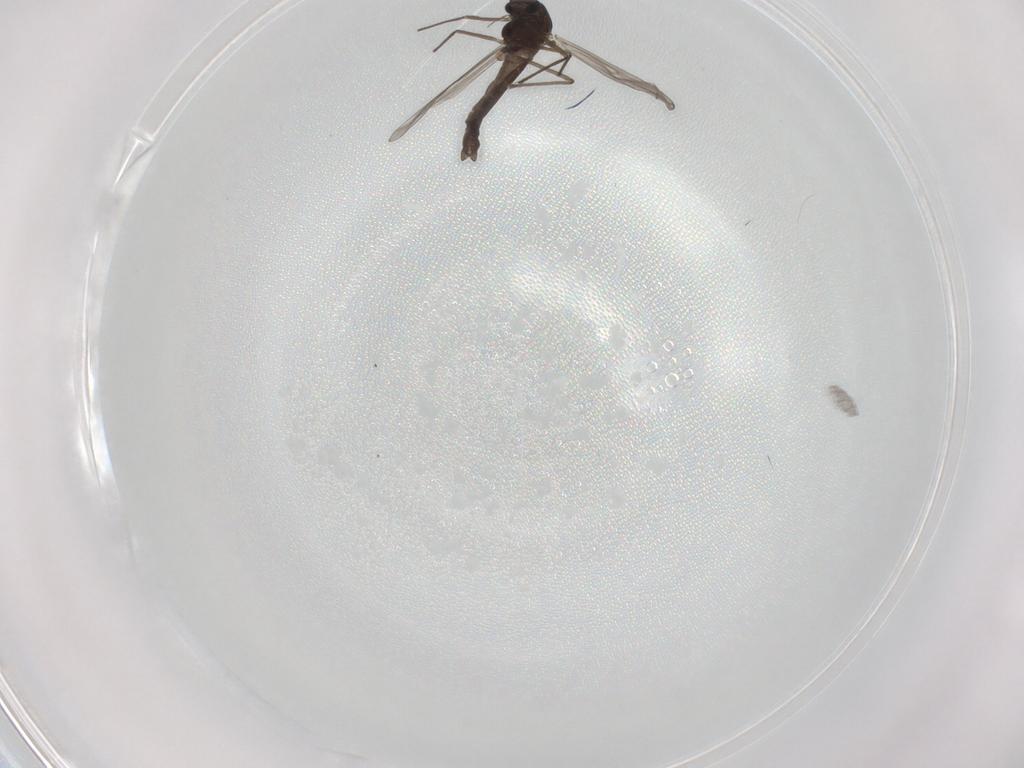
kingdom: Animalia
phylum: Arthropoda
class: Insecta
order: Diptera
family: Chironomidae
